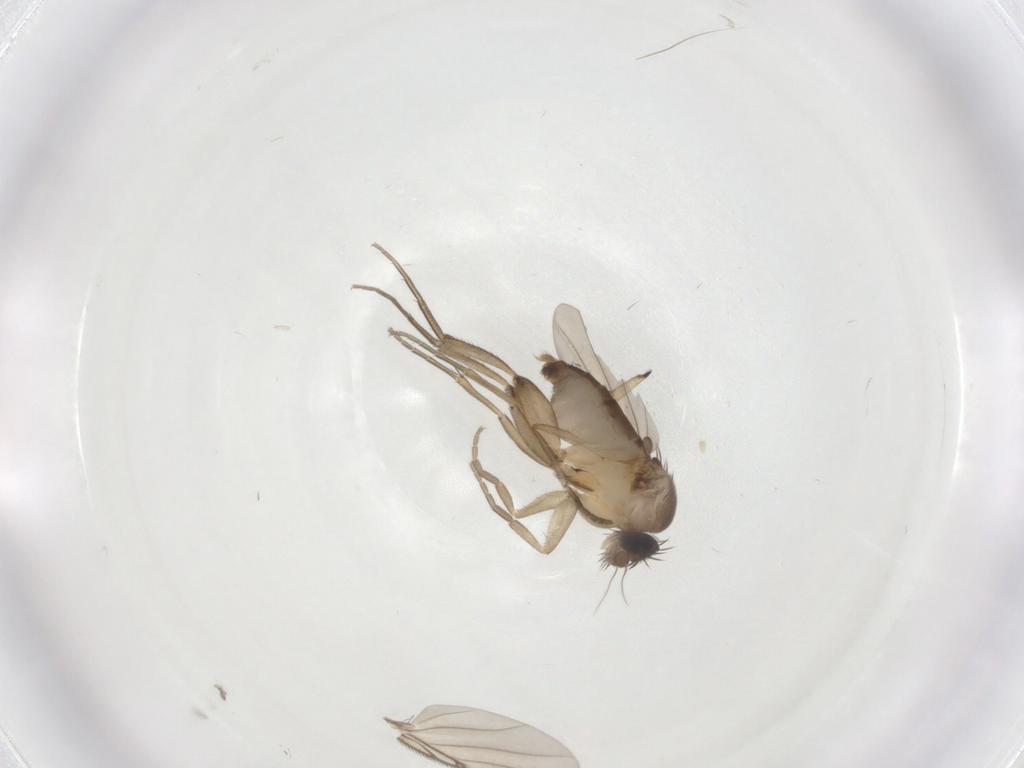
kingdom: Animalia
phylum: Arthropoda
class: Insecta
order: Diptera
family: Phoridae
